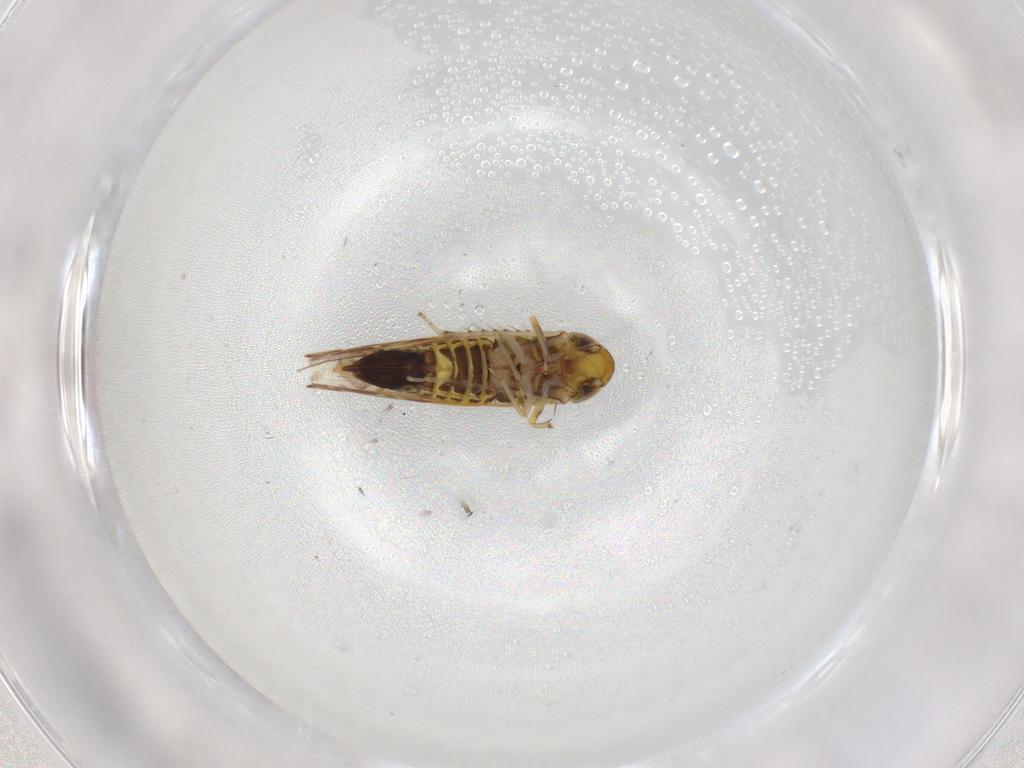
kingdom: Animalia
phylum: Arthropoda
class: Insecta
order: Hemiptera
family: Cicadellidae
